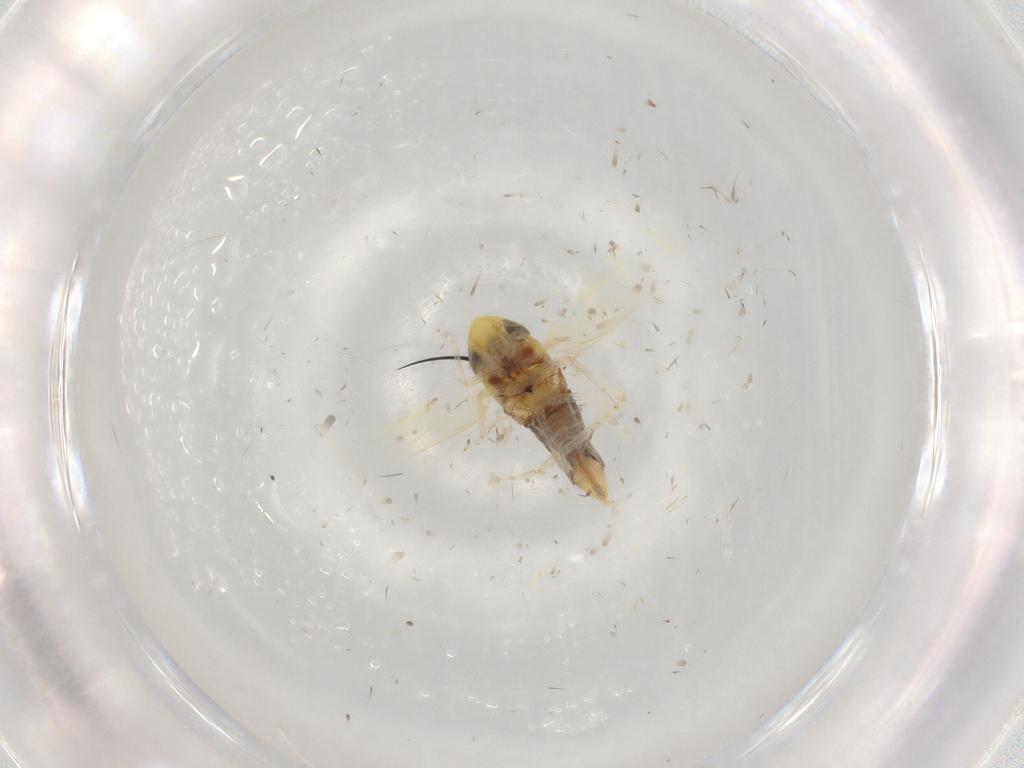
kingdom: Animalia
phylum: Arthropoda
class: Insecta
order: Hemiptera
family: Cicadellidae
